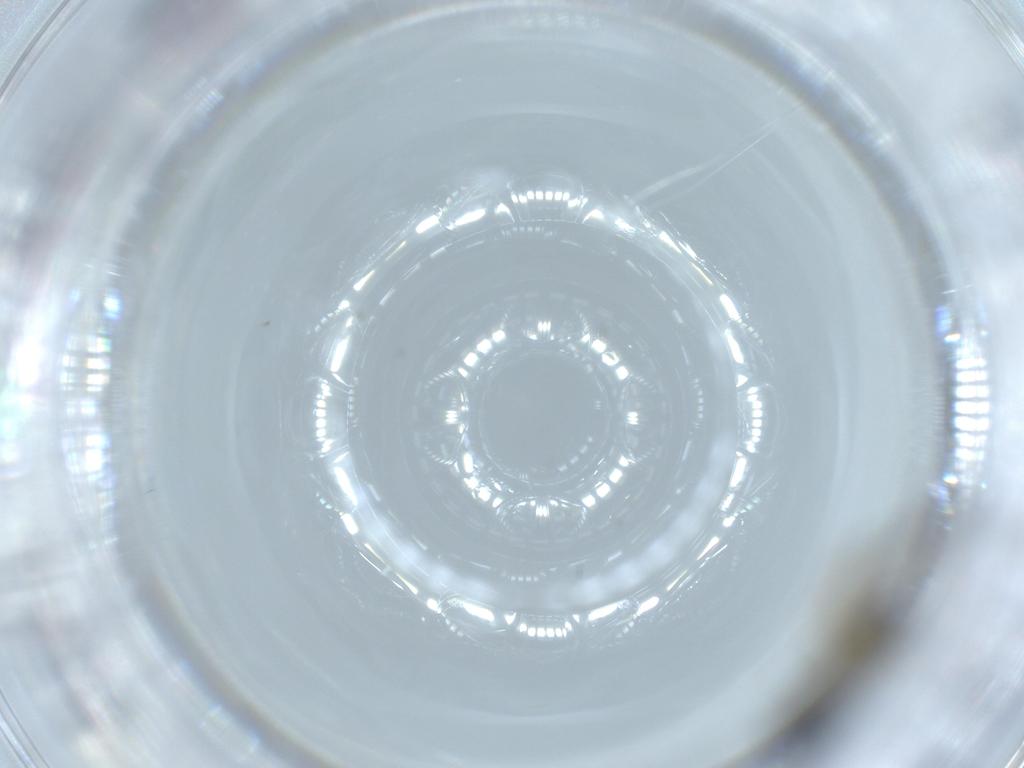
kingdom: Animalia
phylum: Arthropoda
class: Insecta
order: Diptera
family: Sciaridae
